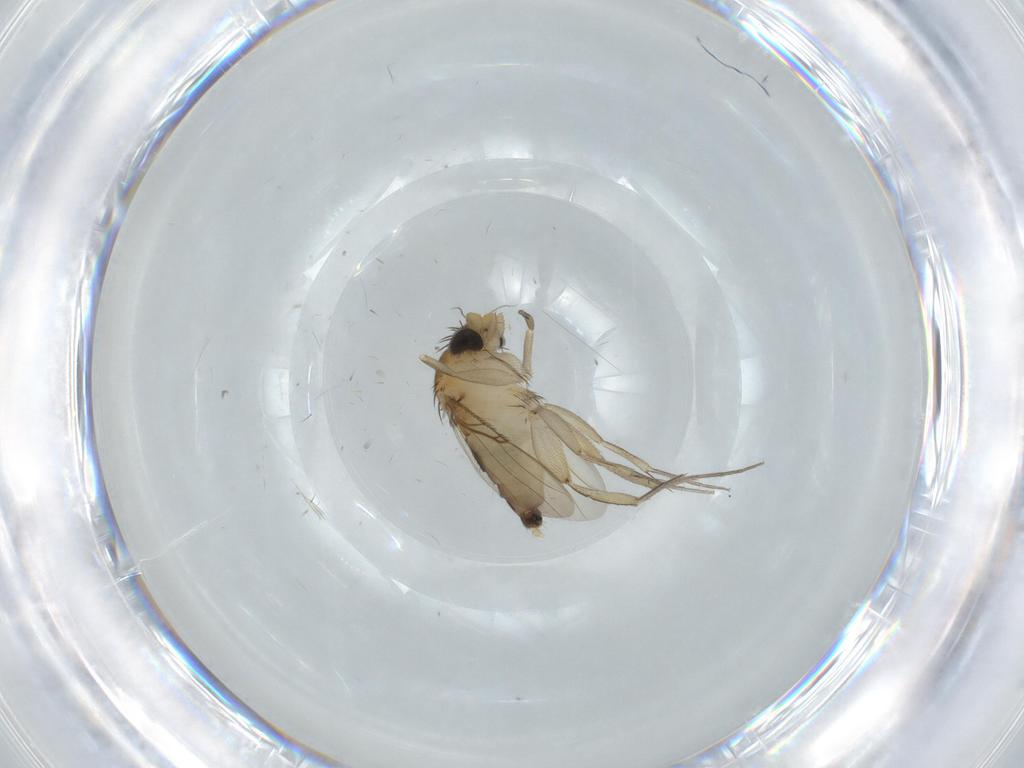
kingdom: Animalia
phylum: Arthropoda
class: Insecta
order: Diptera
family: Phoridae
